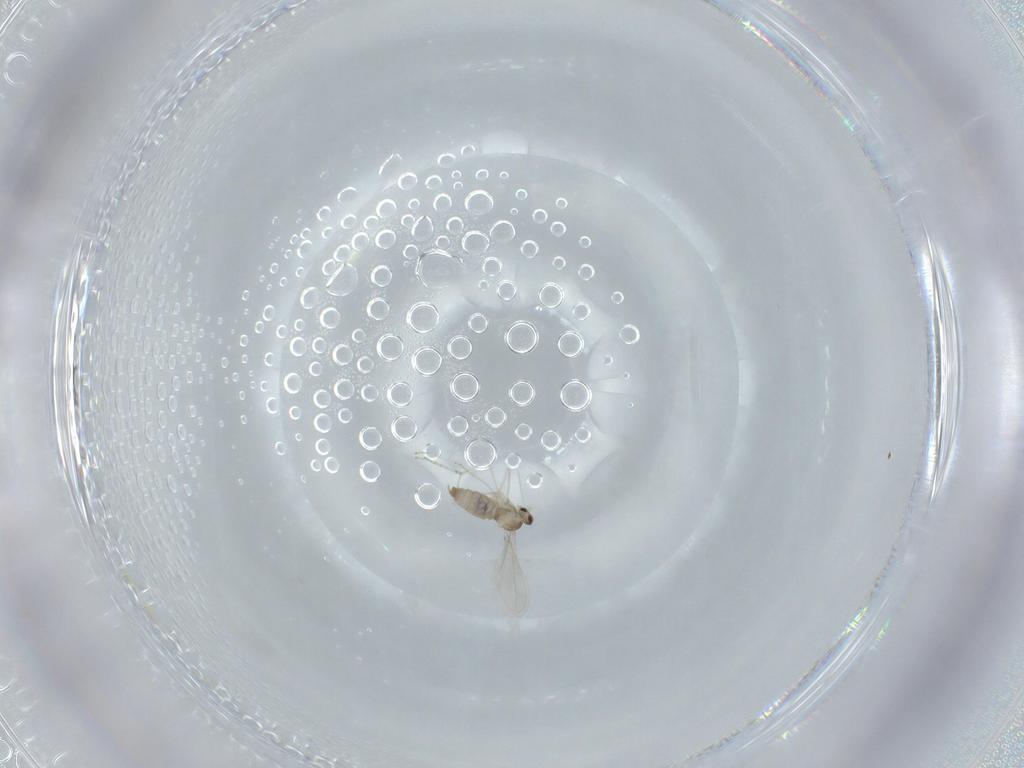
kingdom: Animalia
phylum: Arthropoda
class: Insecta
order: Diptera
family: Cecidomyiidae
